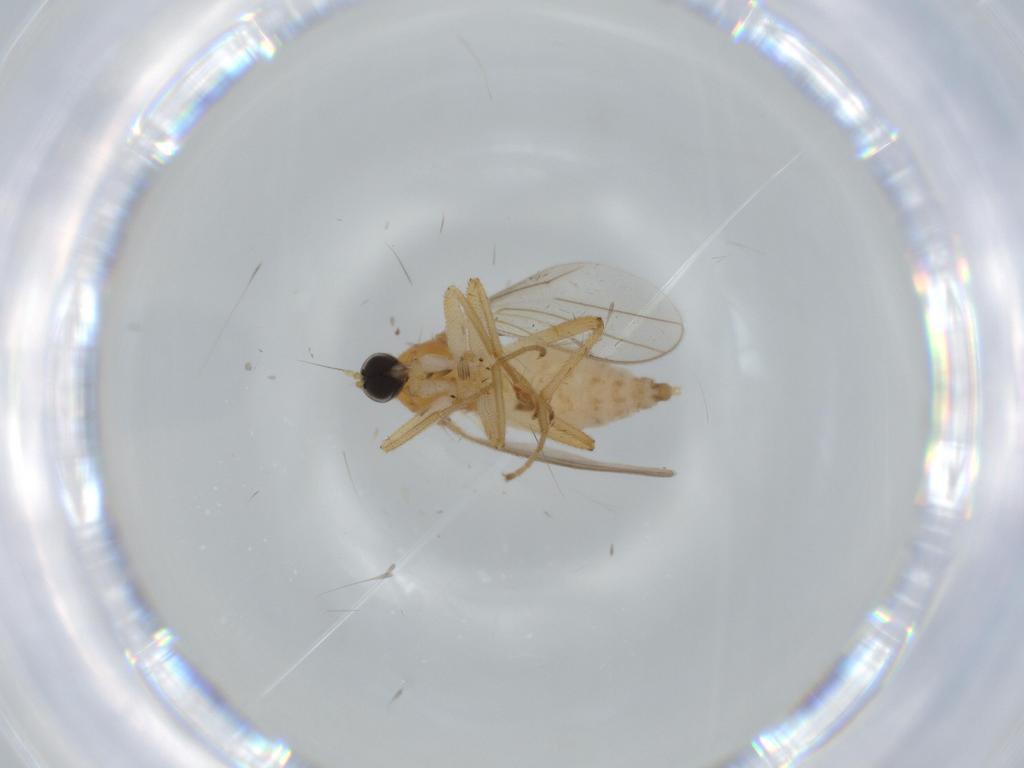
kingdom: Animalia
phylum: Arthropoda
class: Insecta
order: Diptera
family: Hybotidae
